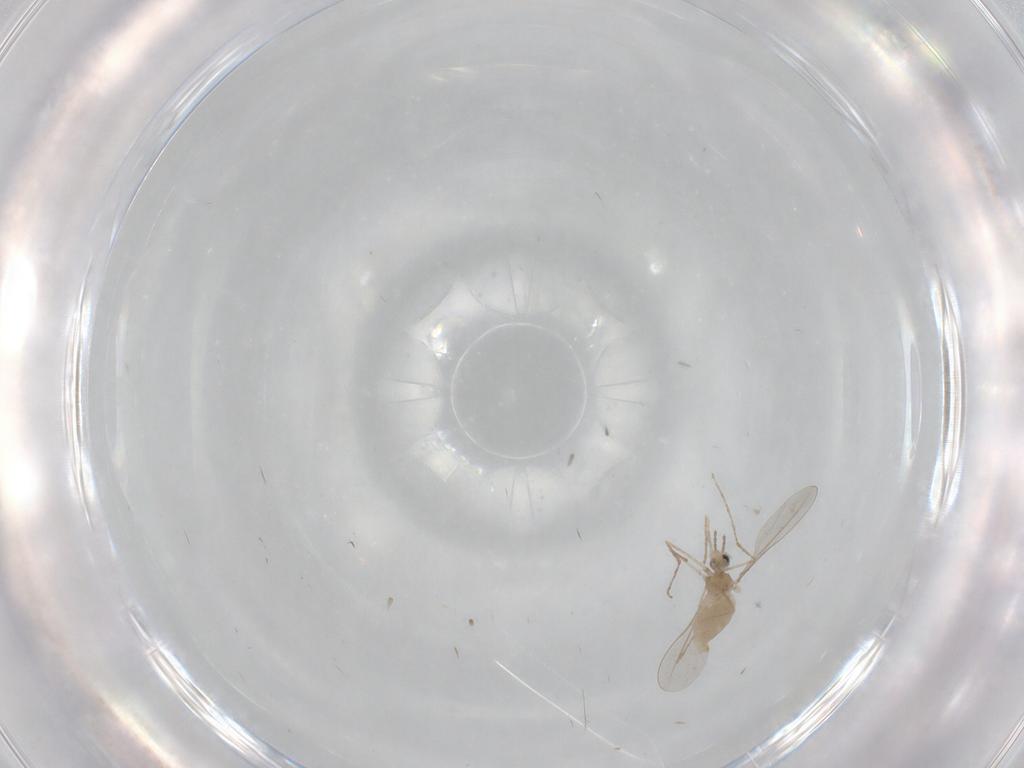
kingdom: Animalia
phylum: Arthropoda
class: Insecta
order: Diptera
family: Cecidomyiidae
